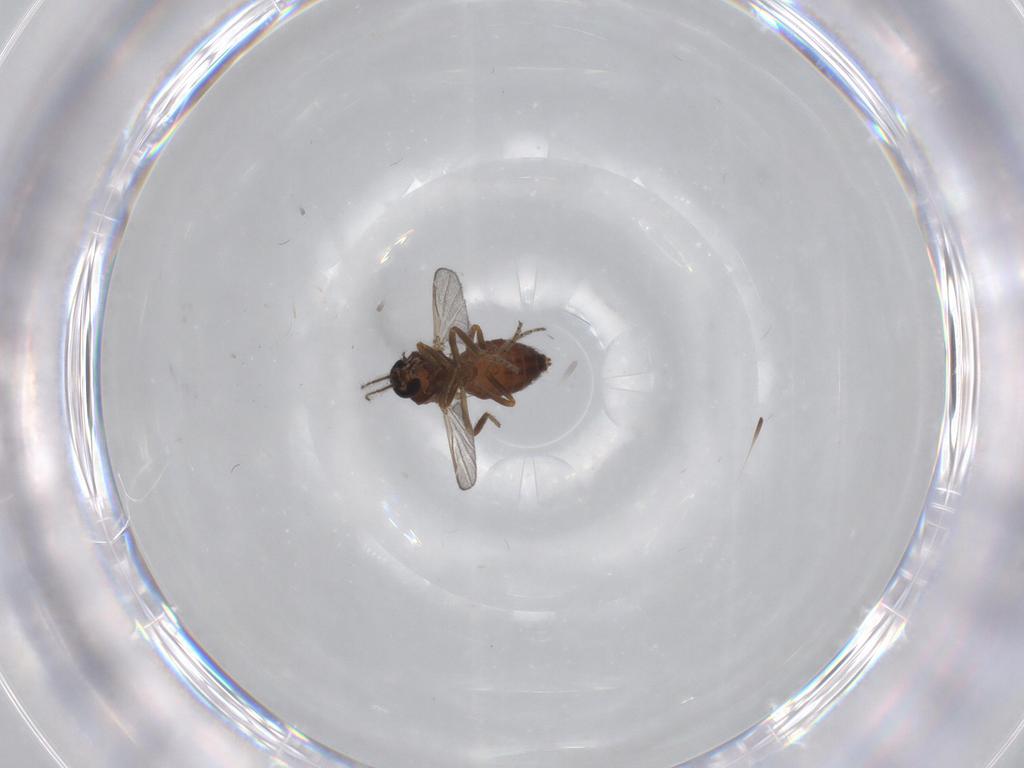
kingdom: Animalia
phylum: Arthropoda
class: Insecta
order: Diptera
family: Ceratopogonidae
